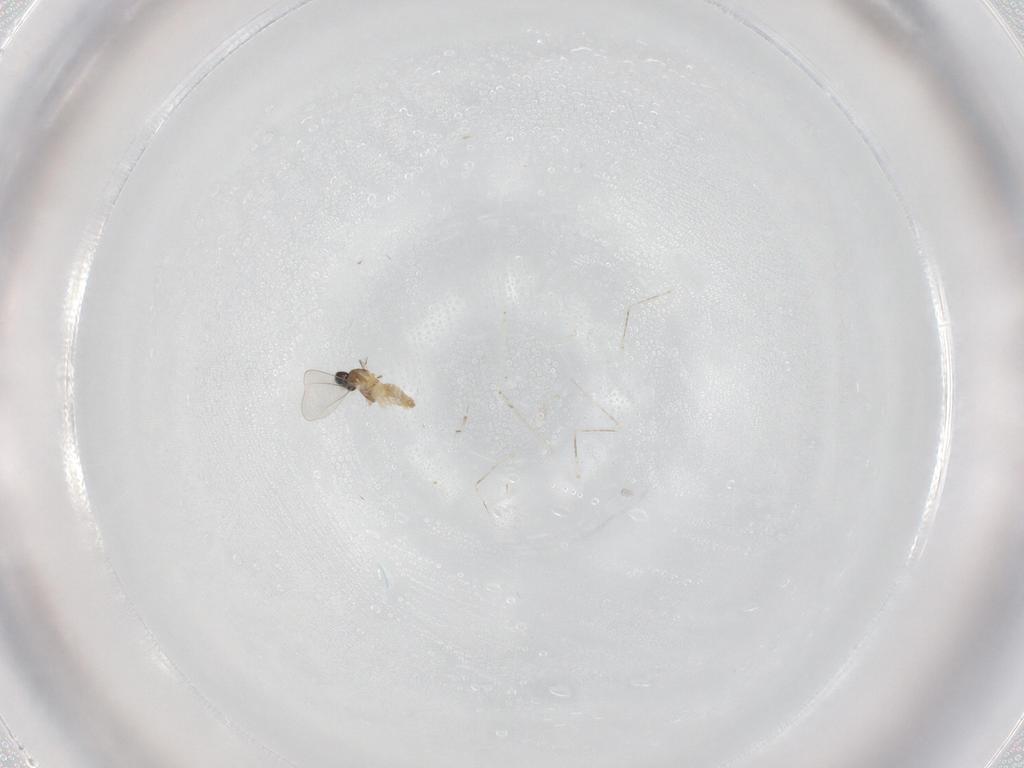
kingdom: Animalia
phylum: Arthropoda
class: Insecta
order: Diptera
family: Cecidomyiidae
